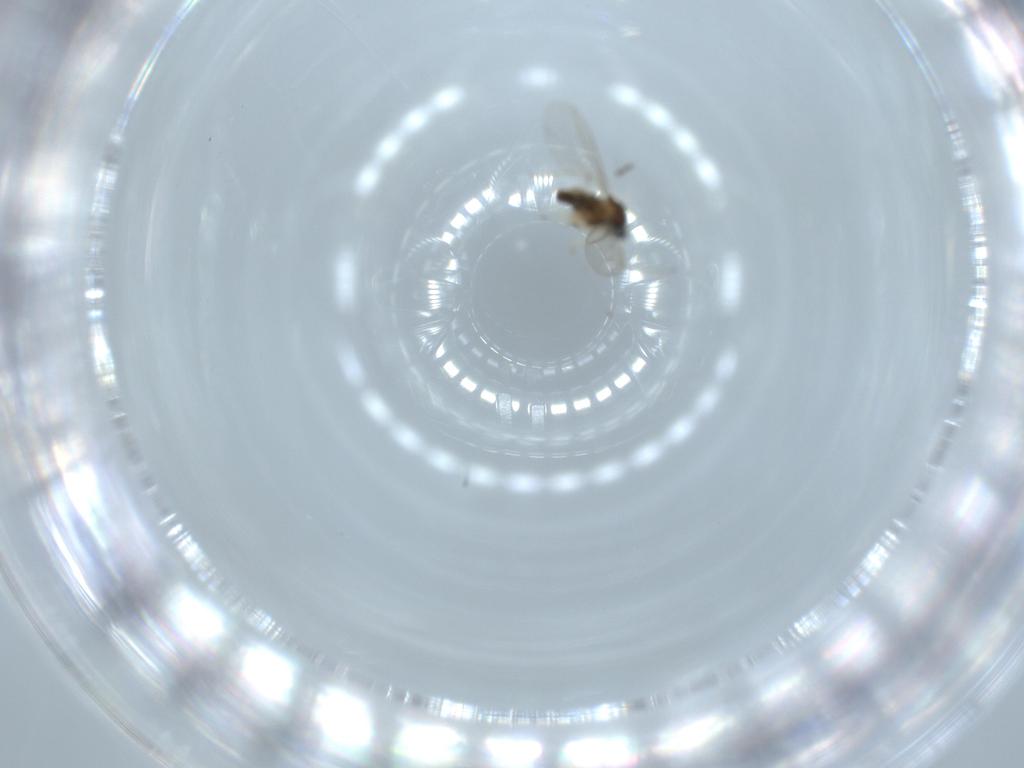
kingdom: Animalia
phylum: Arthropoda
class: Insecta
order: Diptera
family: Cecidomyiidae
